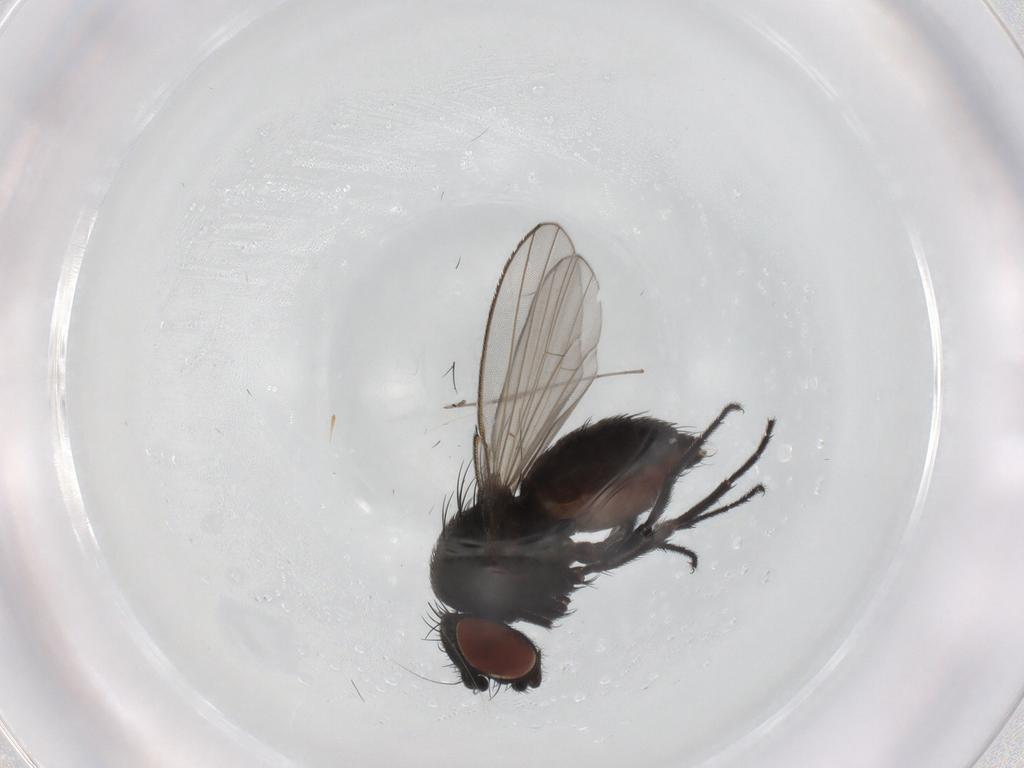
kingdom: Animalia
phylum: Arthropoda
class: Insecta
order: Diptera
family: Milichiidae
